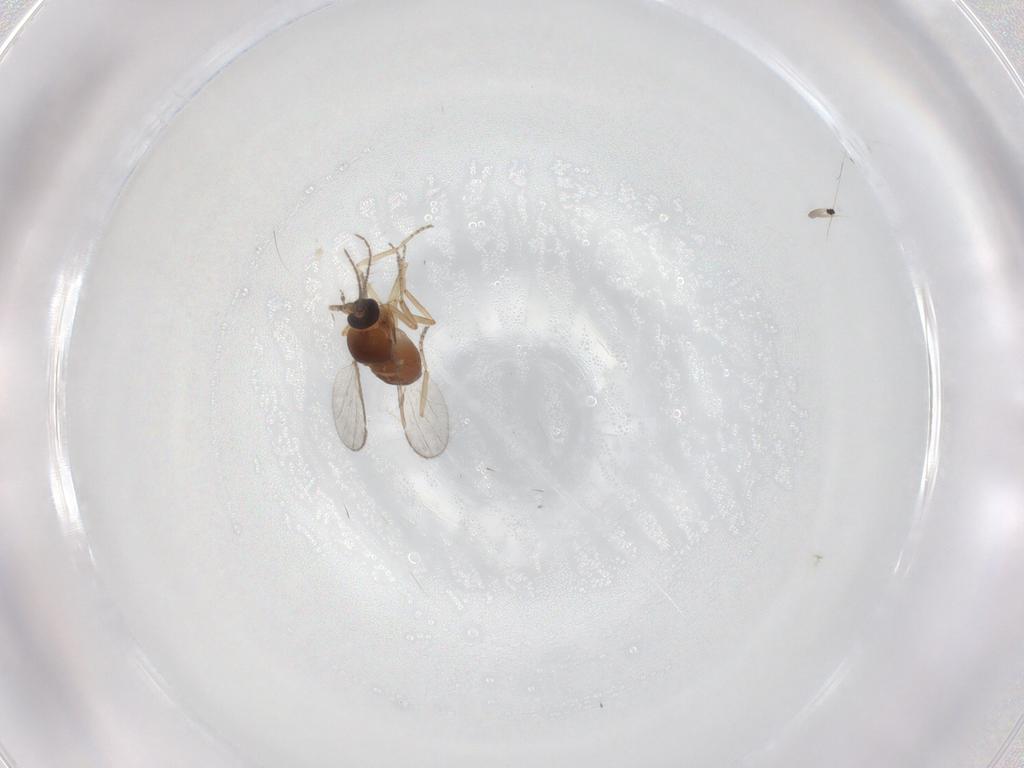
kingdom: Animalia
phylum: Arthropoda
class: Insecta
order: Diptera
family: Ceratopogonidae
